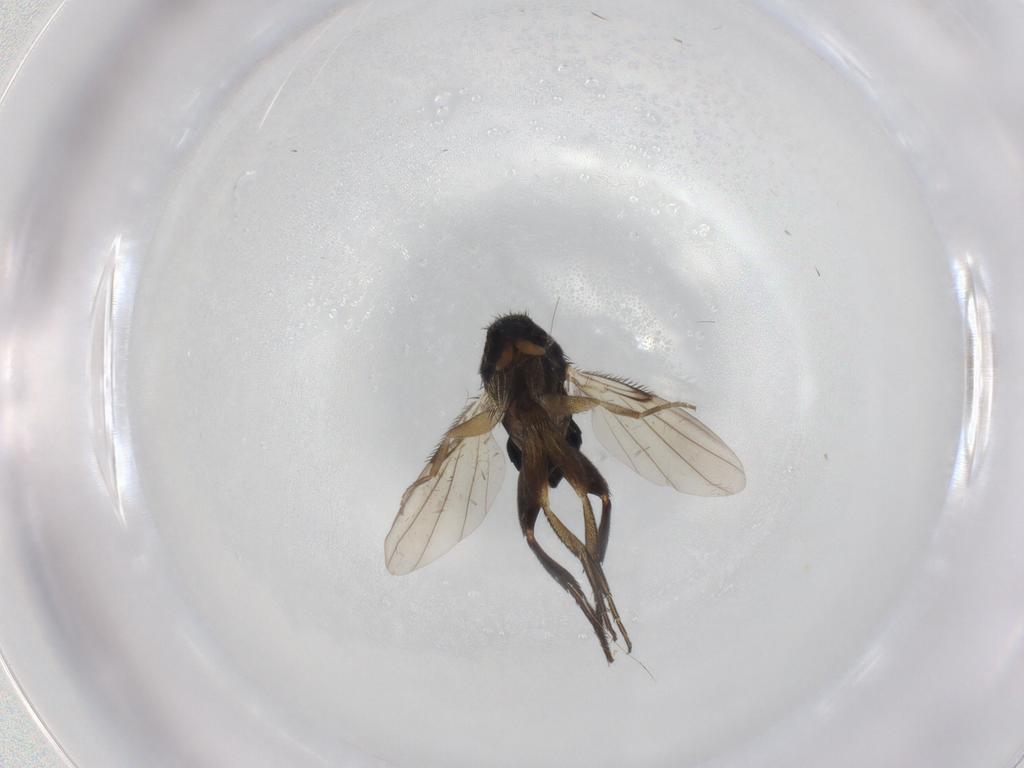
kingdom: Animalia
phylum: Arthropoda
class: Insecta
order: Diptera
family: Phoridae
